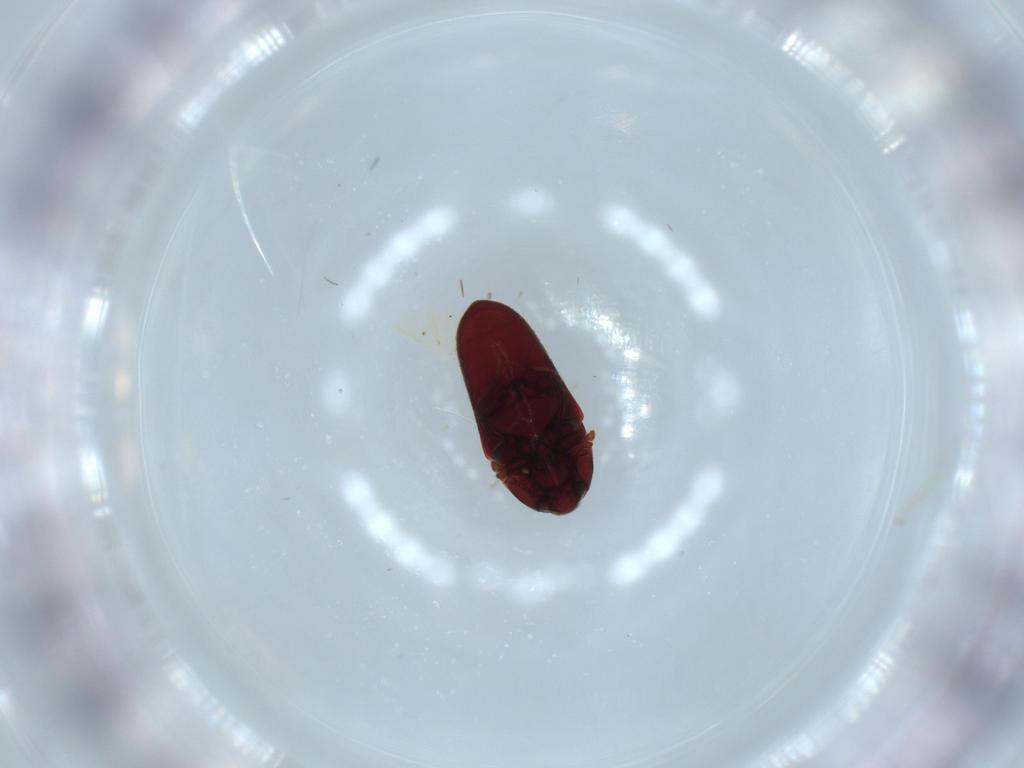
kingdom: Animalia
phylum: Arthropoda
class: Insecta
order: Coleoptera
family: Throscidae
